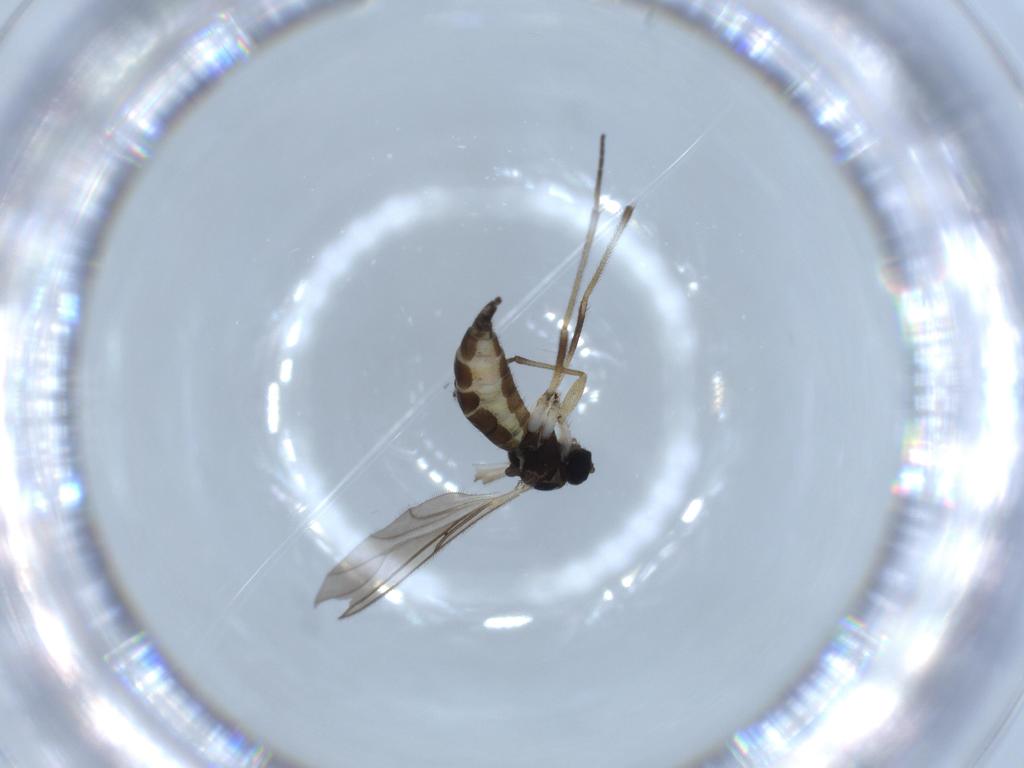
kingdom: Animalia
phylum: Arthropoda
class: Insecta
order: Diptera
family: Sciaridae
